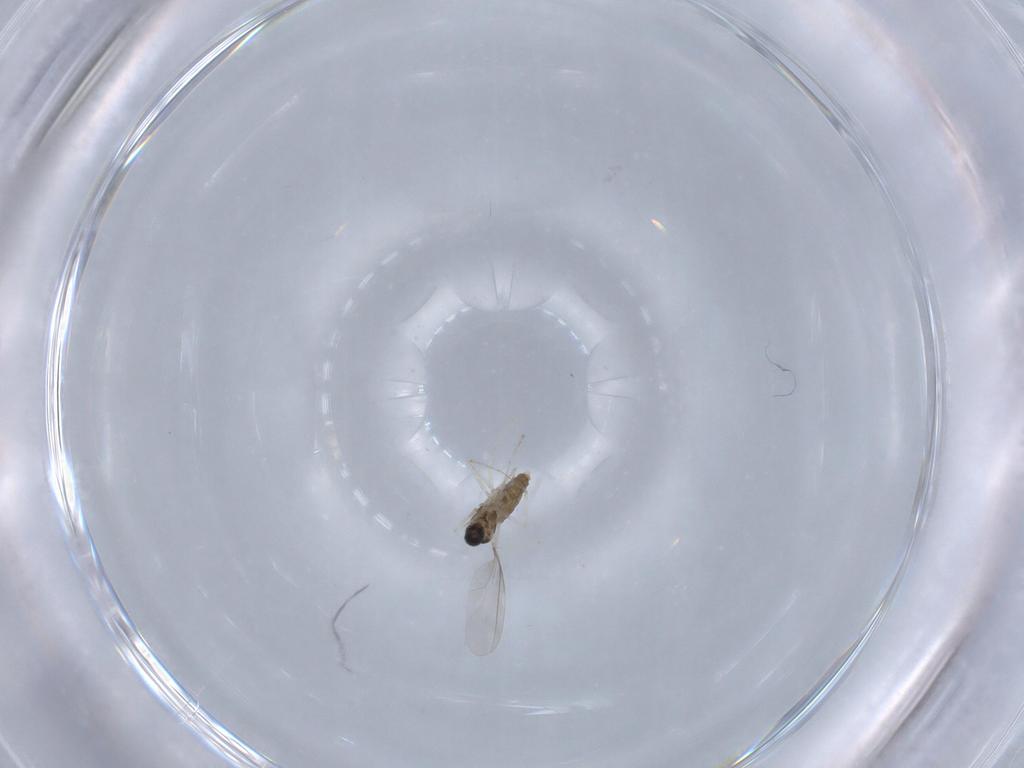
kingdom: Animalia
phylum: Arthropoda
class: Insecta
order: Diptera
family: Cecidomyiidae
